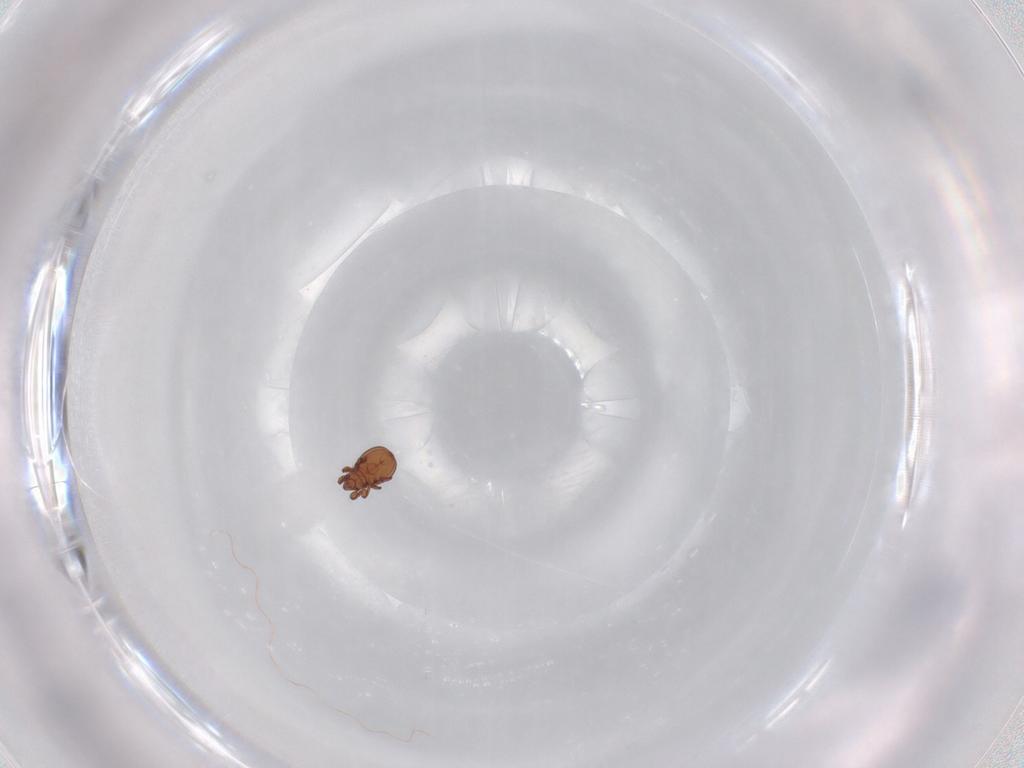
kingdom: Animalia
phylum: Arthropoda
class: Arachnida
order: Sarcoptiformes
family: Eremaeidae
